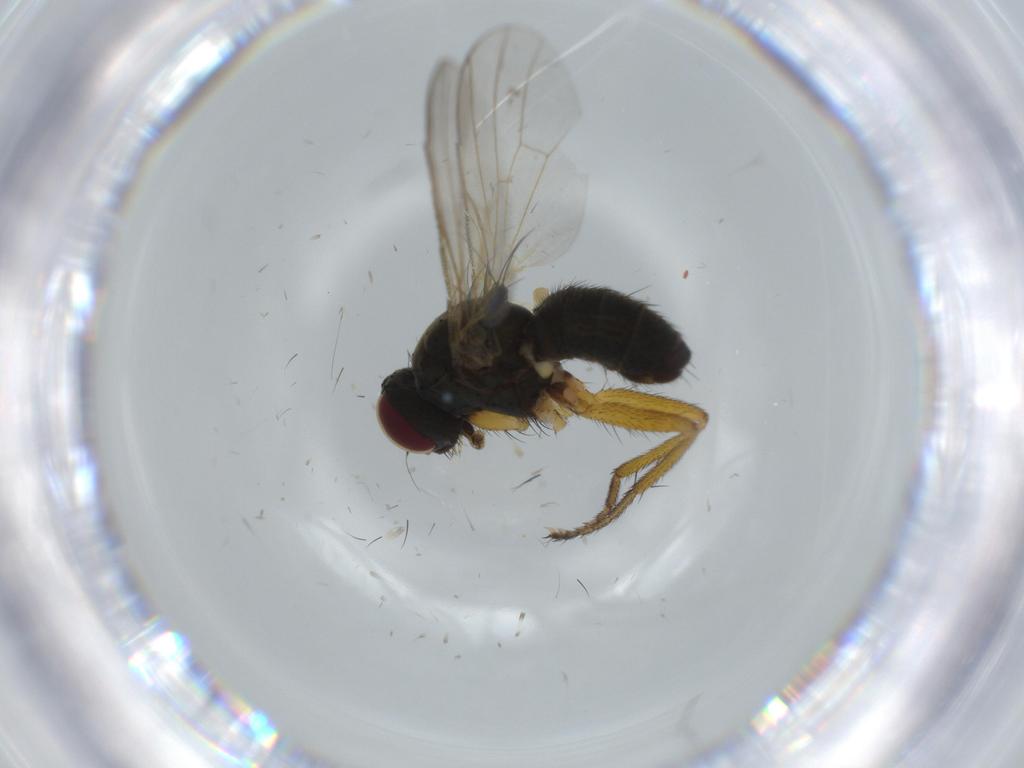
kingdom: Animalia
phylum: Arthropoda
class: Insecta
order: Diptera
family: Muscidae
